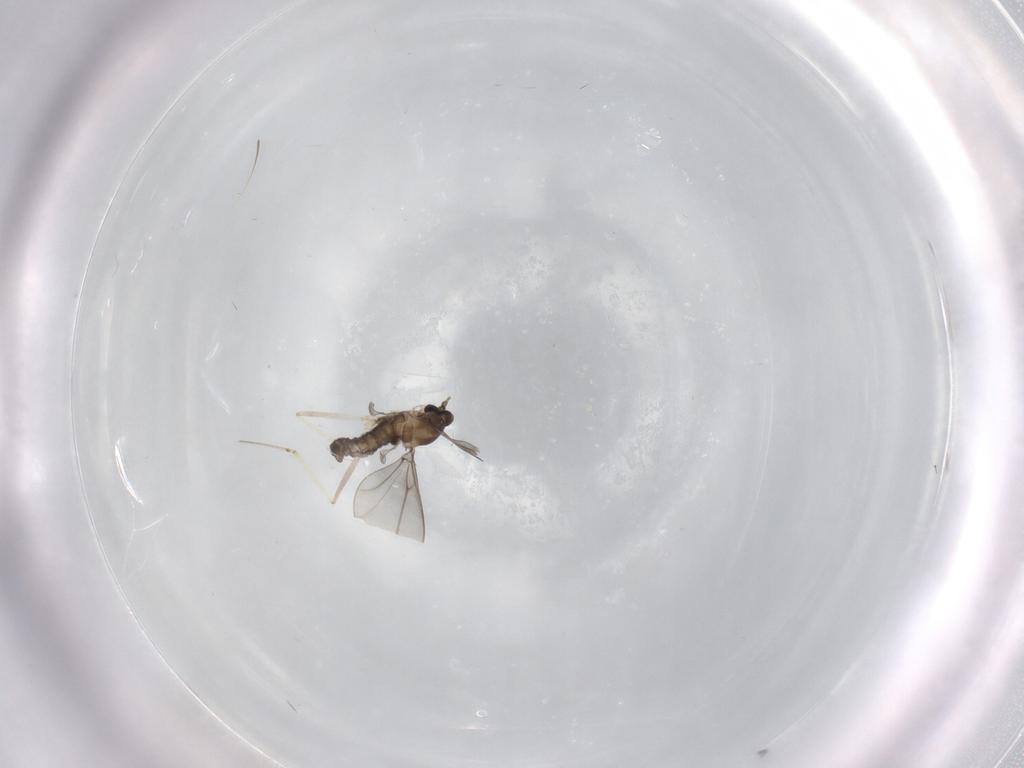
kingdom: Animalia
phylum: Arthropoda
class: Insecta
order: Diptera
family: Cecidomyiidae
